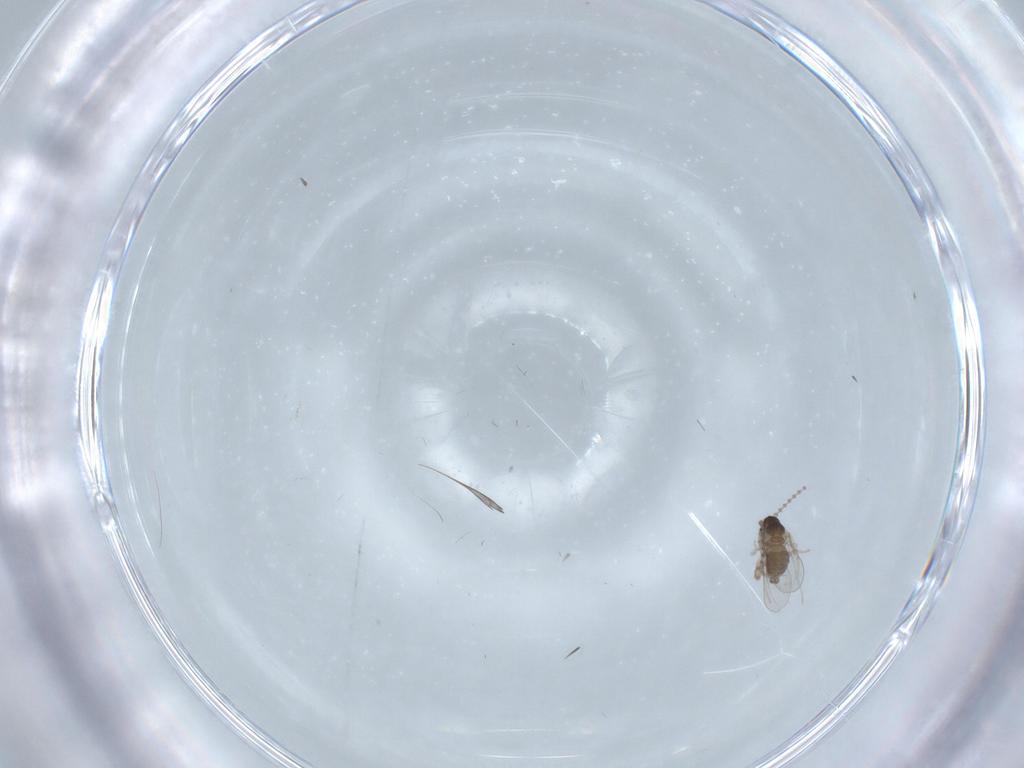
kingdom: Animalia
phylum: Arthropoda
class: Insecta
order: Diptera
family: Cecidomyiidae
